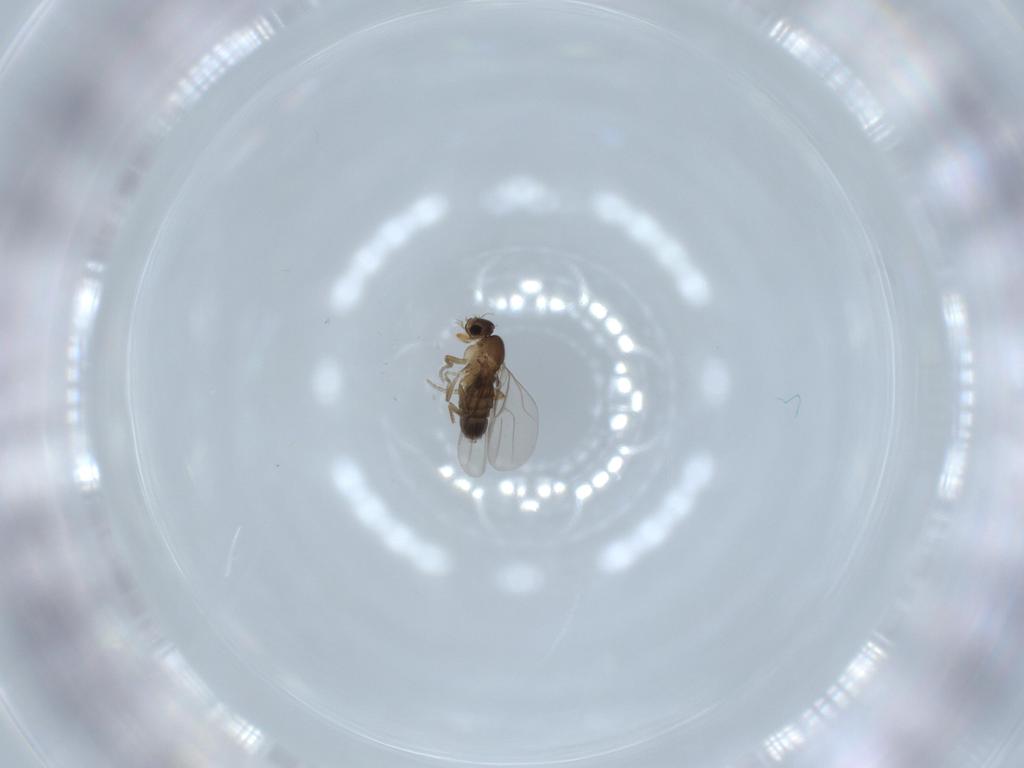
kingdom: Animalia
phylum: Arthropoda
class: Insecta
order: Diptera
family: Phoridae
